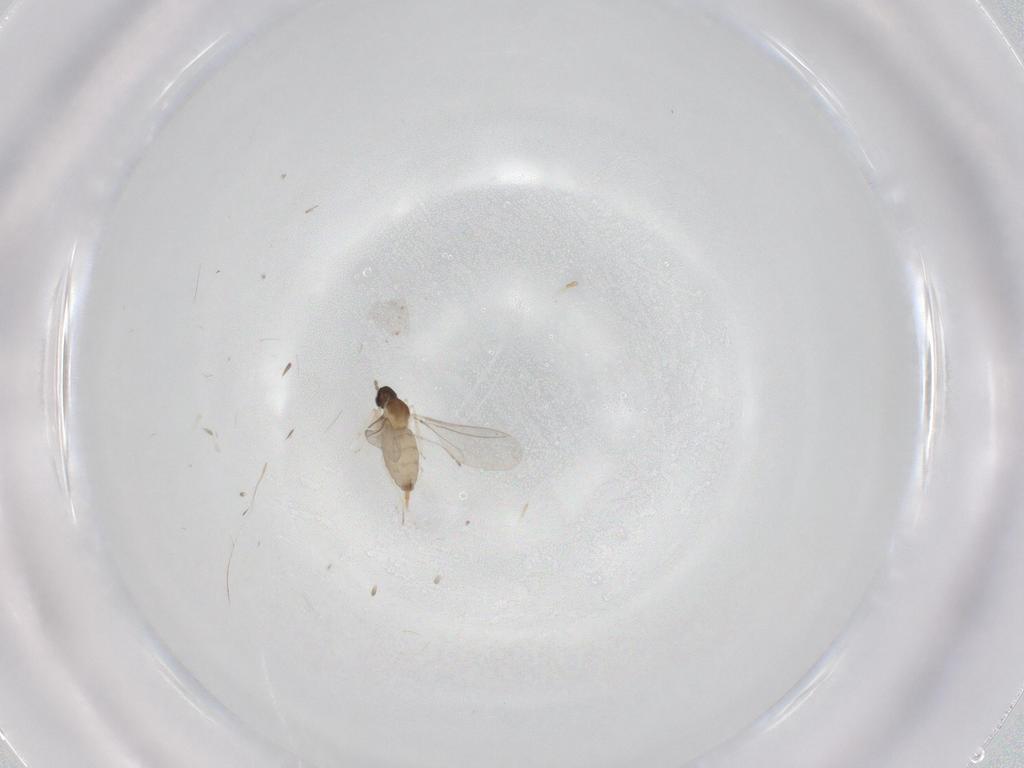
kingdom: Animalia
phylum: Arthropoda
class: Insecta
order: Diptera
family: Cecidomyiidae
